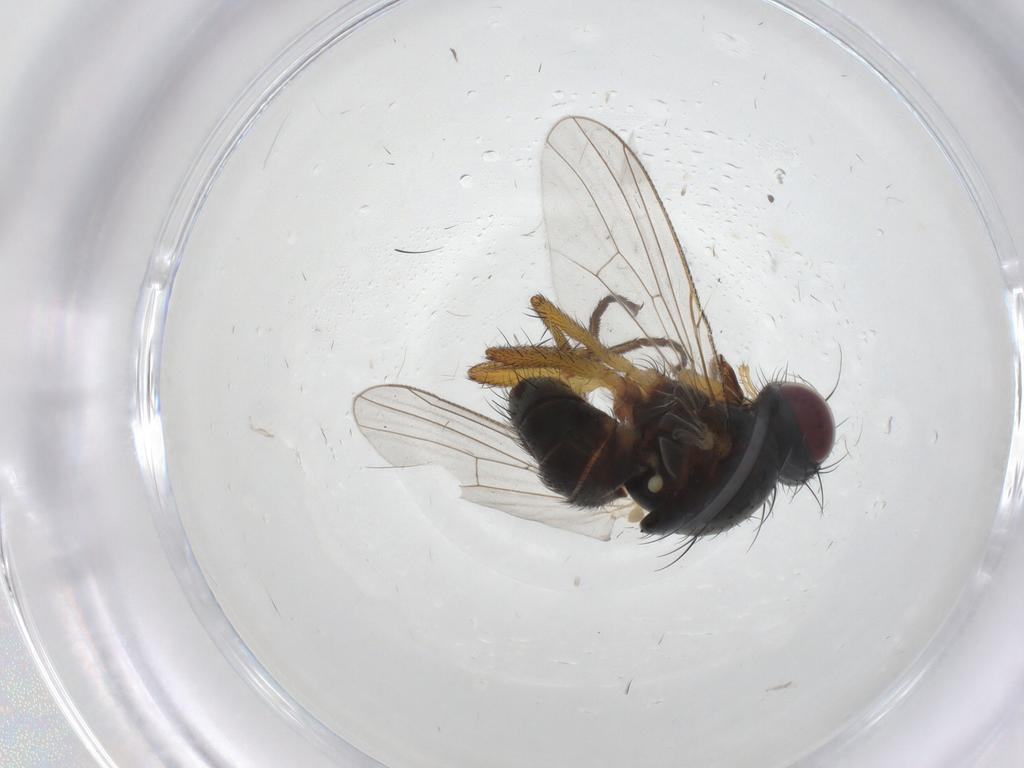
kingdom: Animalia
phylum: Arthropoda
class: Insecta
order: Diptera
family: Muscidae
